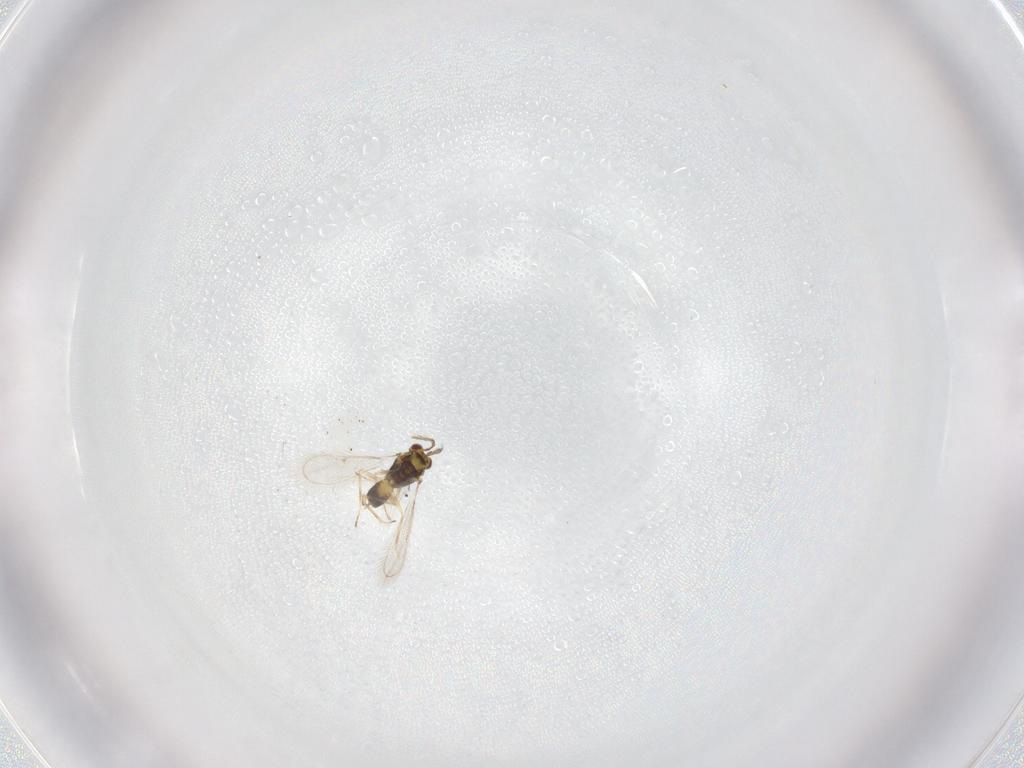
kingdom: Animalia
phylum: Arthropoda
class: Insecta
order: Hymenoptera
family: Eulophidae
